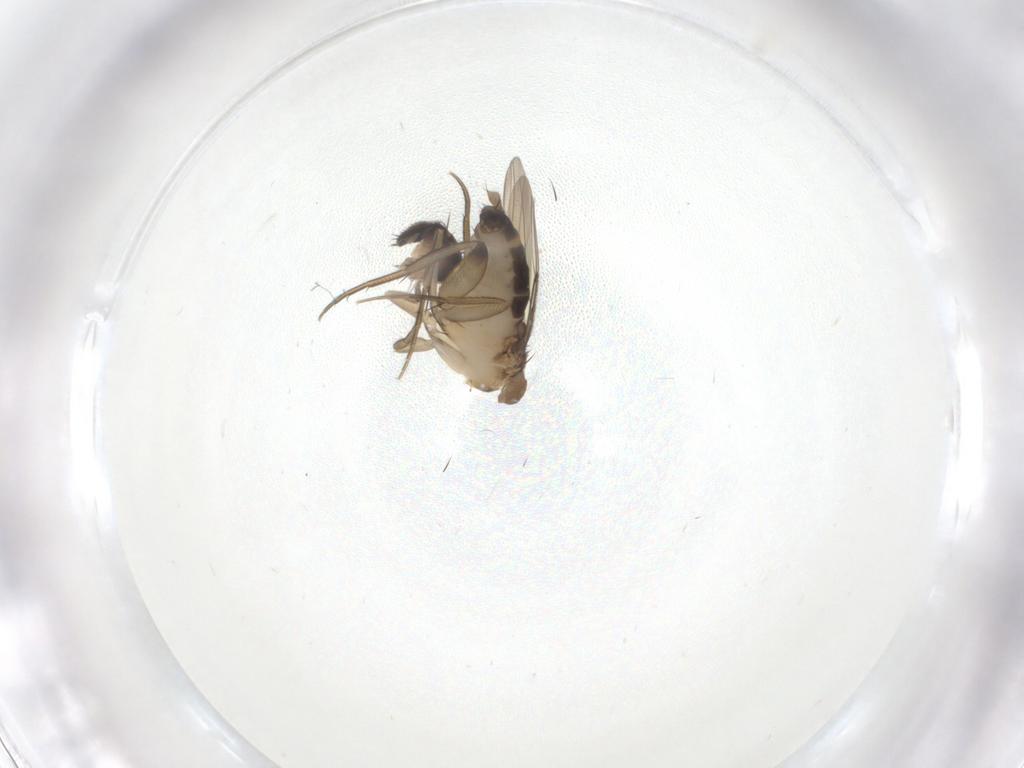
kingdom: Animalia
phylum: Arthropoda
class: Insecta
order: Diptera
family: Phoridae
